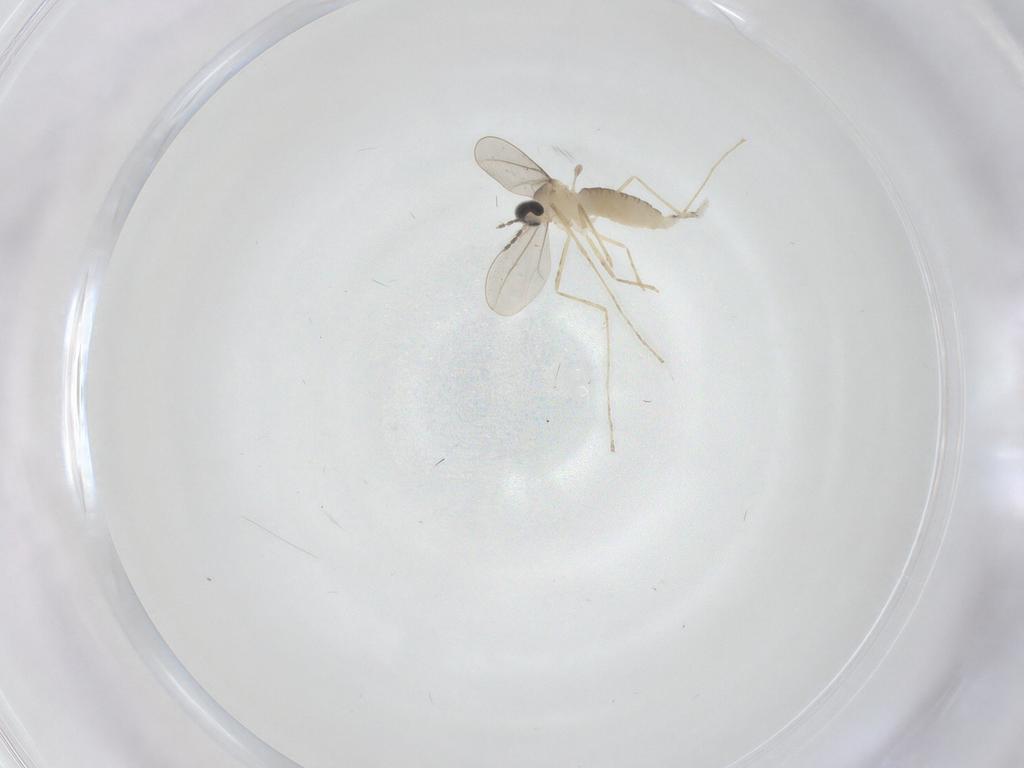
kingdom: Animalia
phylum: Arthropoda
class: Insecta
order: Diptera
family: Cecidomyiidae
